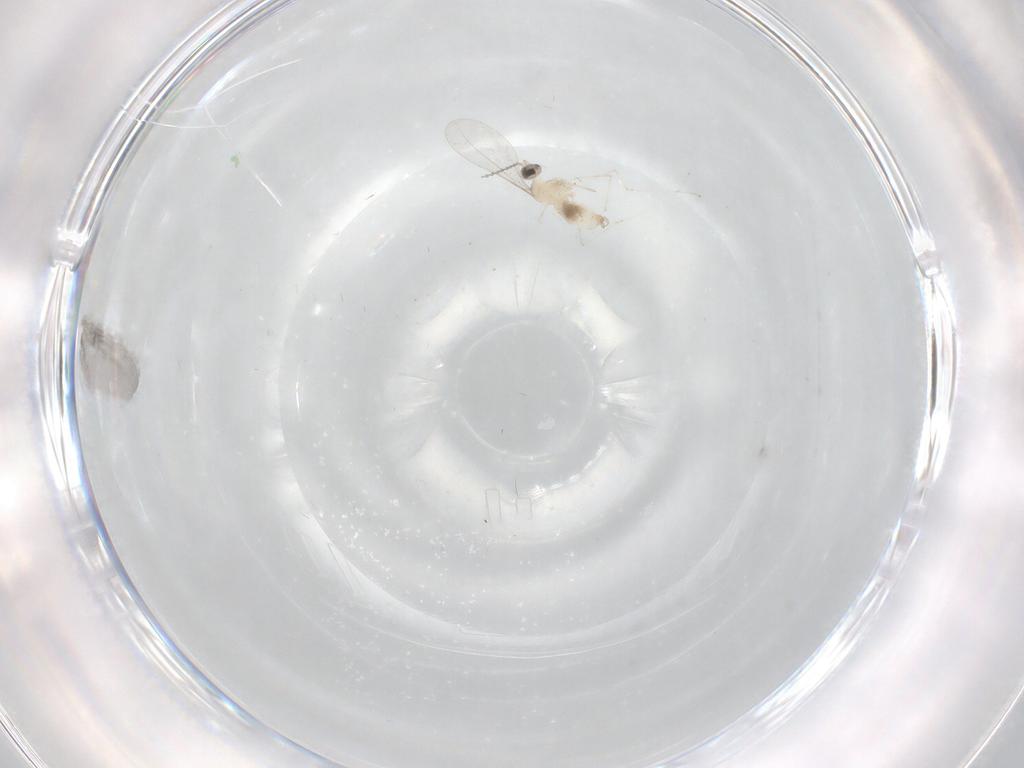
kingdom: Animalia
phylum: Arthropoda
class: Insecta
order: Diptera
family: Cecidomyiidae
